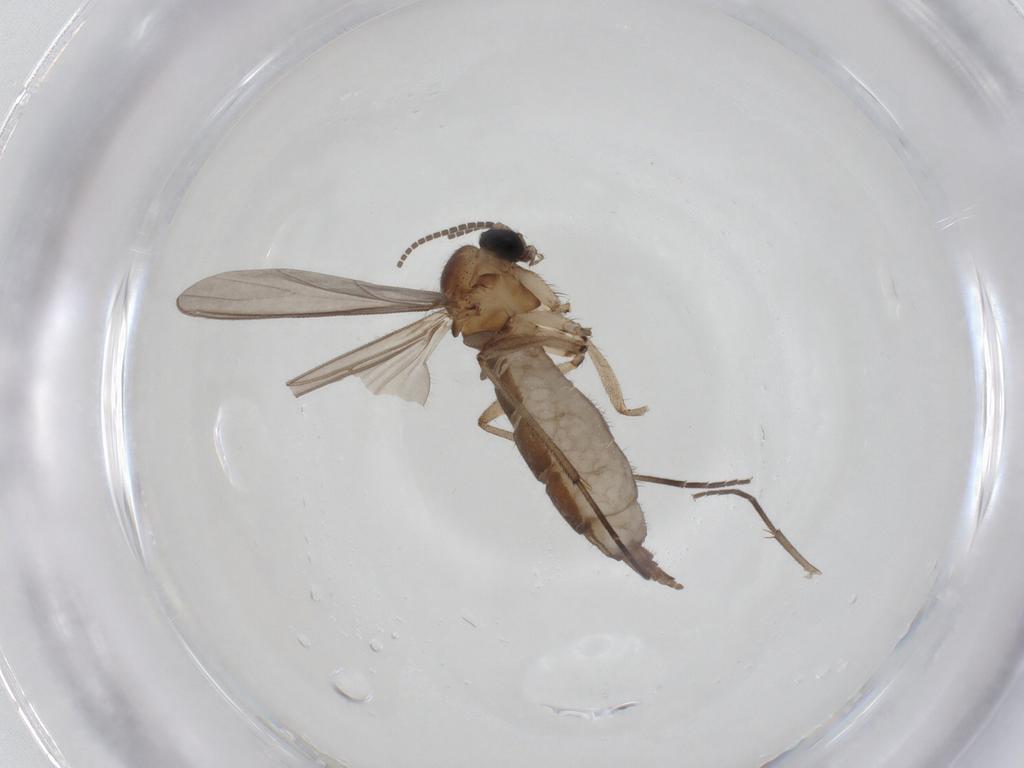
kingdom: Animalia
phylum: Arthropoda
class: Insecta
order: Diptera
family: Sciaridae
